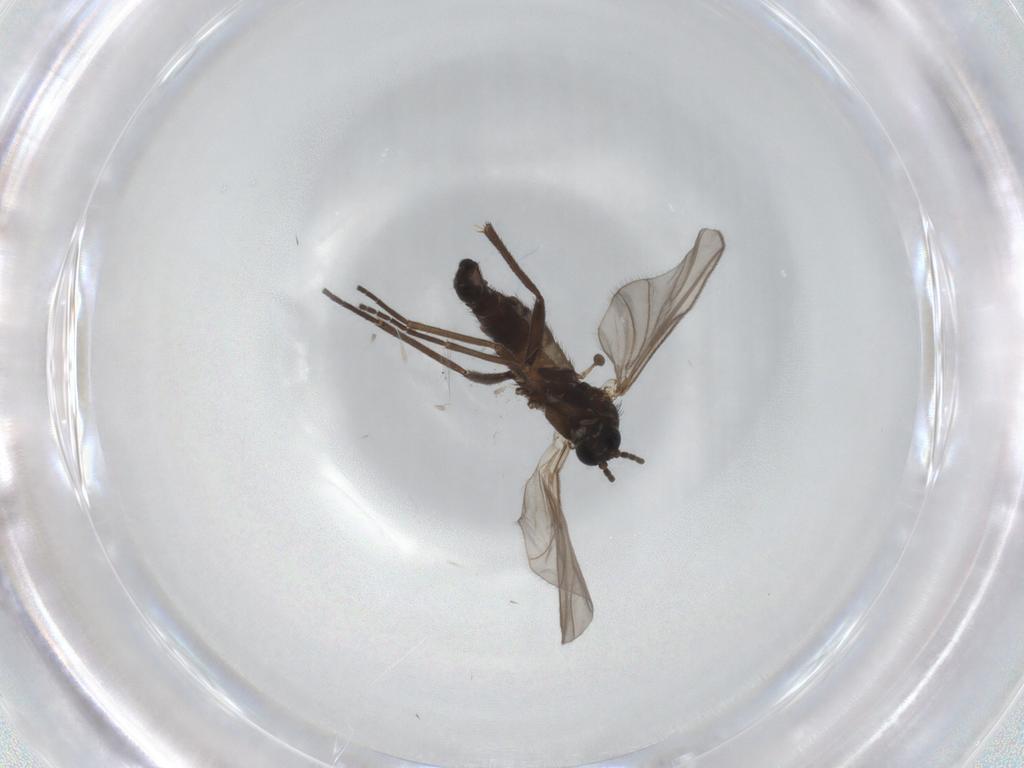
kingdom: Animalia
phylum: Arthropoda
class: Insecta
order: Diptera
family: Sciaridae
